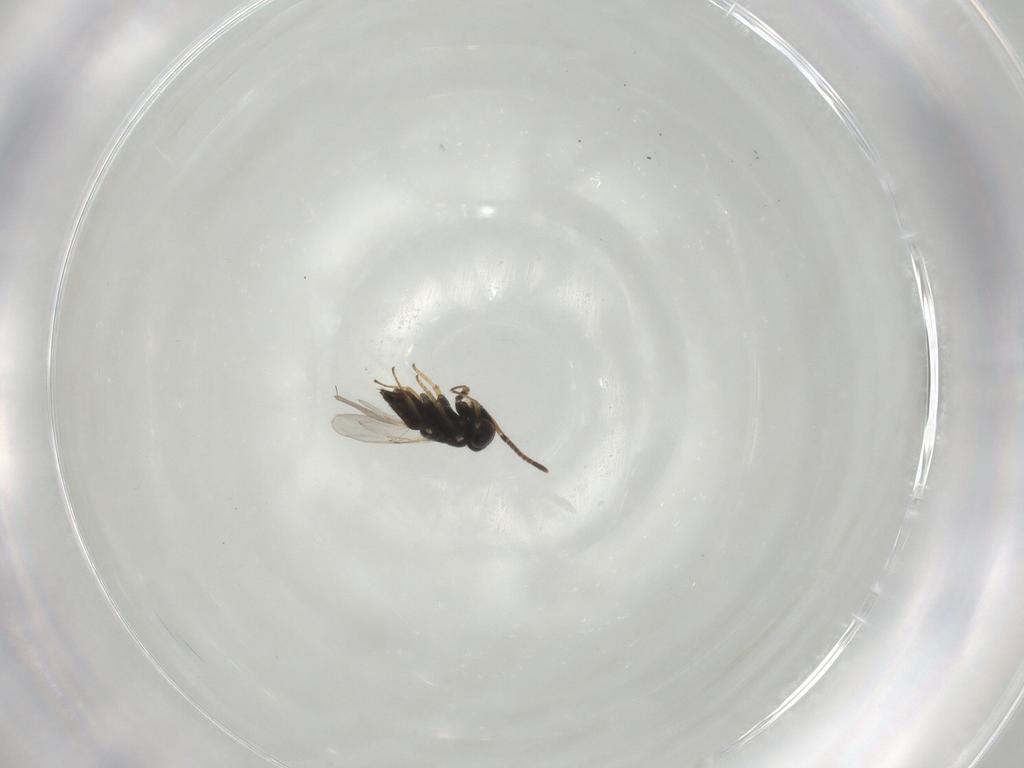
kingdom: Animalia
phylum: Arthropoda
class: Insecta
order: Hymenoptera
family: Encyrtidae
